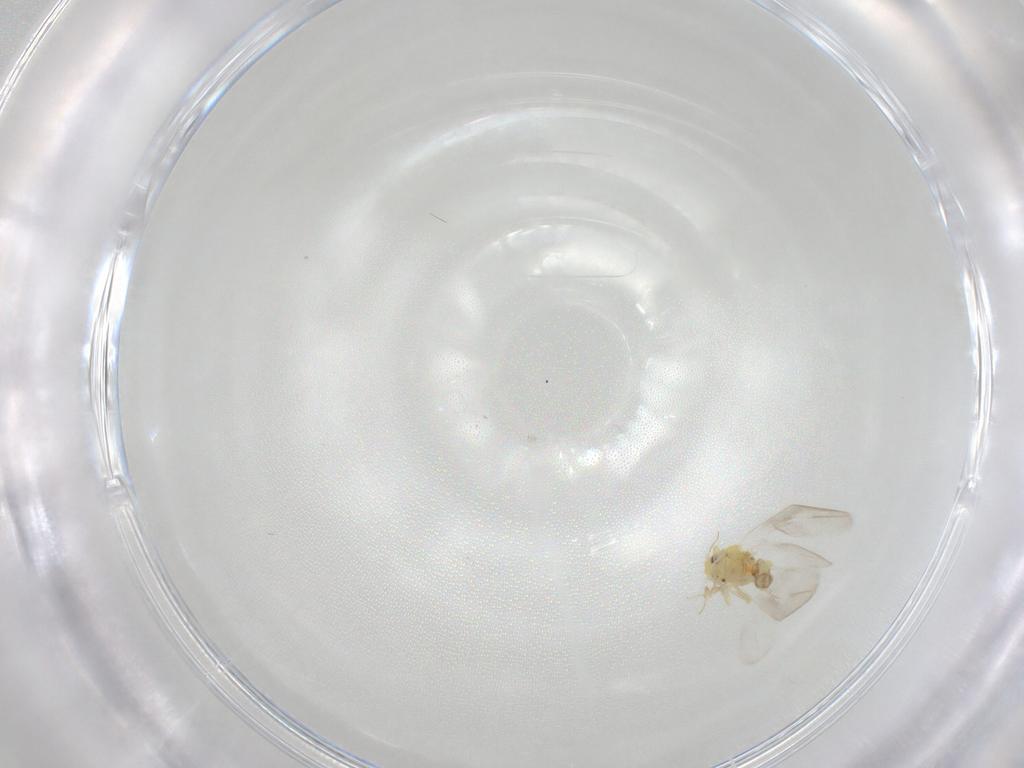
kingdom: Animalia
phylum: Arthropoda
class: Insecta
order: Hemiptera
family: Aleyrodidae
